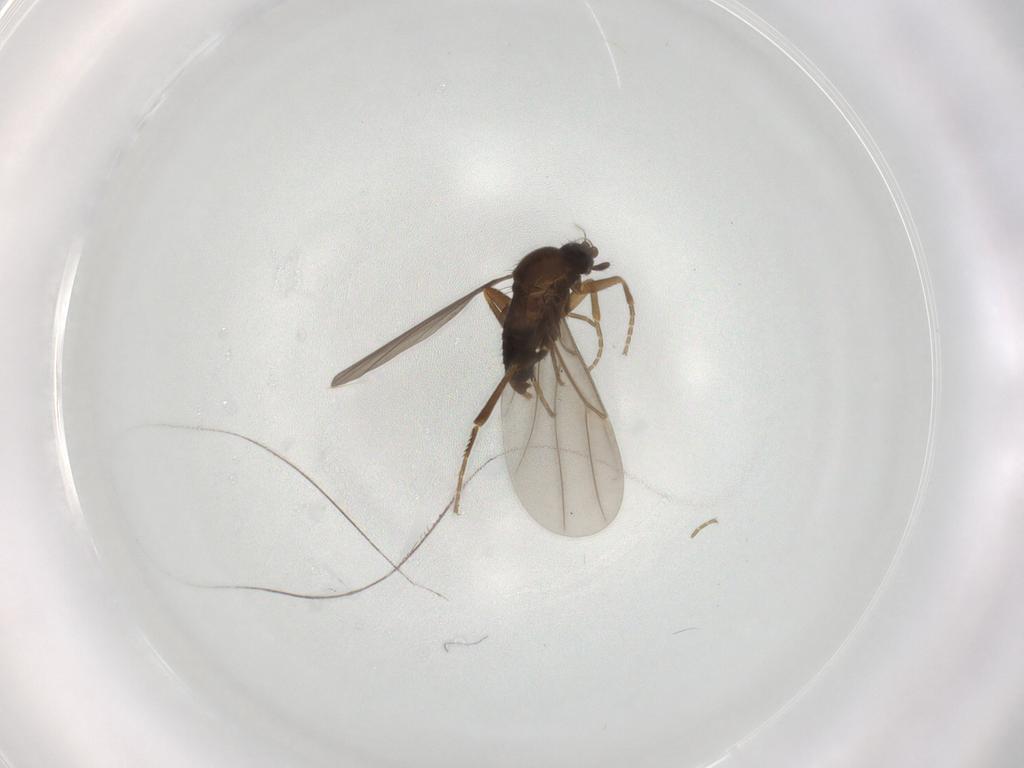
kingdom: Animalia
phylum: Arthropoda
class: Insecta
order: Diptera
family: Phoridae
